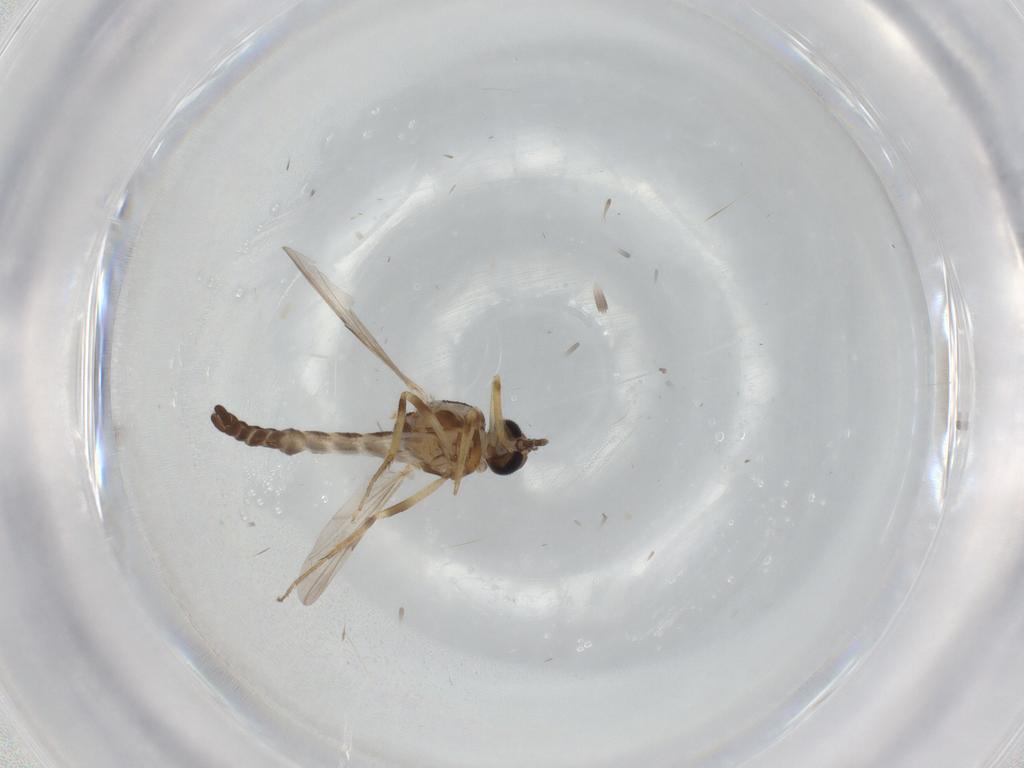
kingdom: Animalia
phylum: Arthropoda
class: Insecta
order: Diptera
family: Ceratopogonidae
